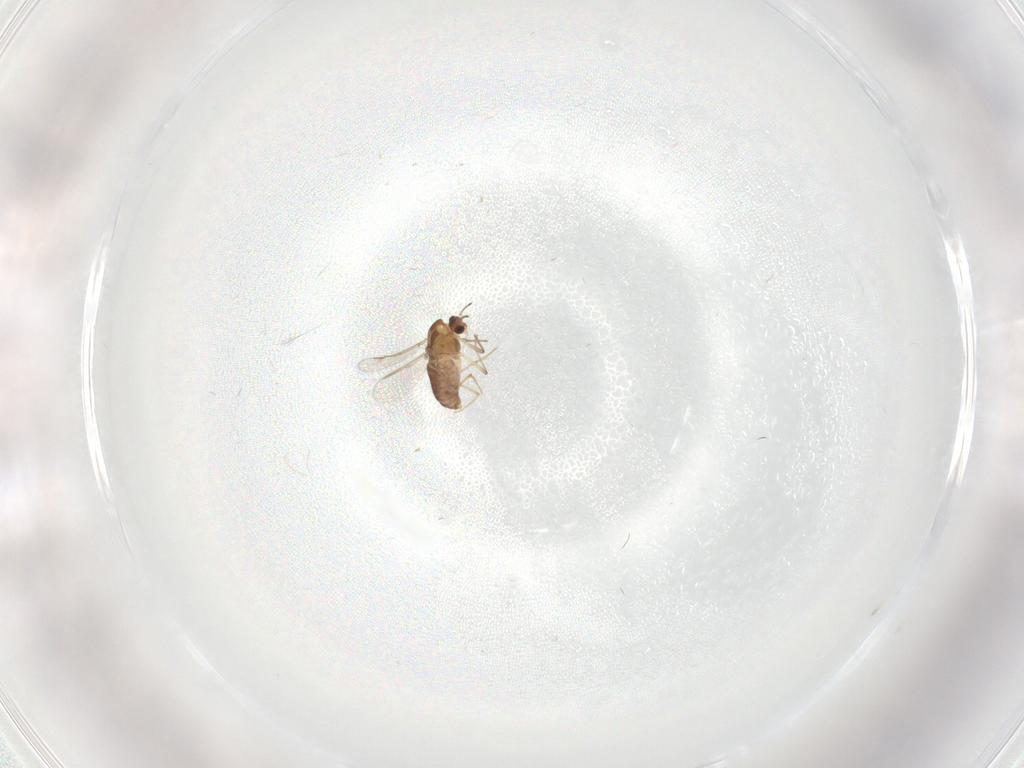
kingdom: Animalia
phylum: Arthropoda
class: Insecta
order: Diptera
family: Chironomidae
